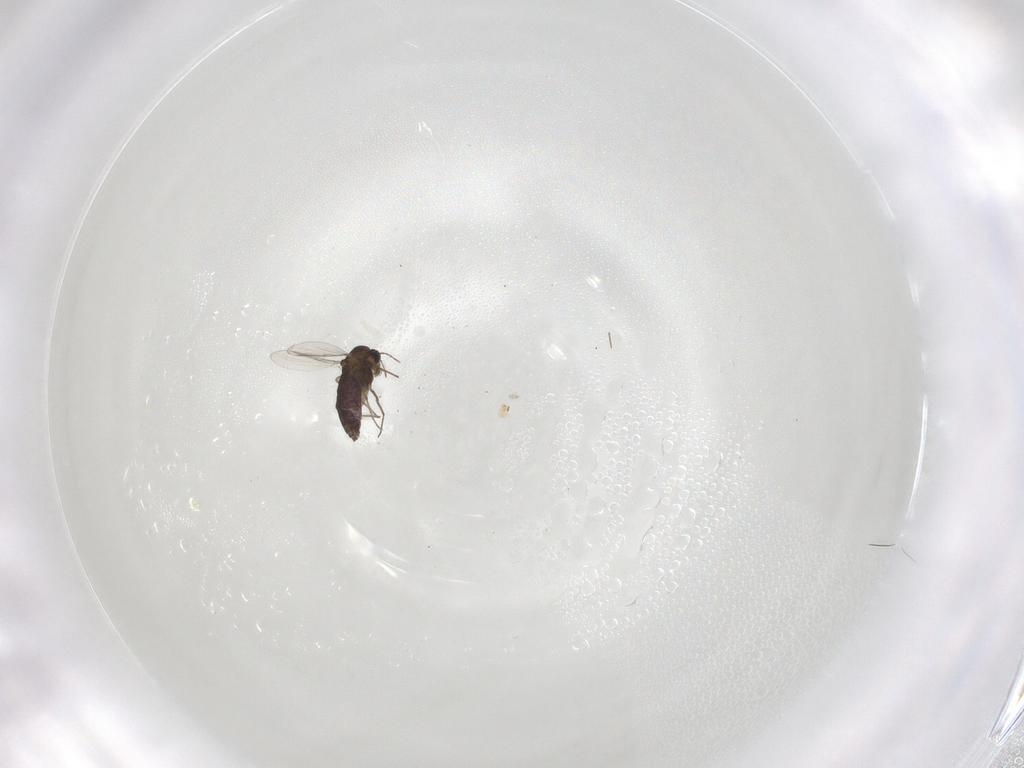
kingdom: Animalia
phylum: Arthropoda
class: Insecta
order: Diptera
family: Chironomidae
